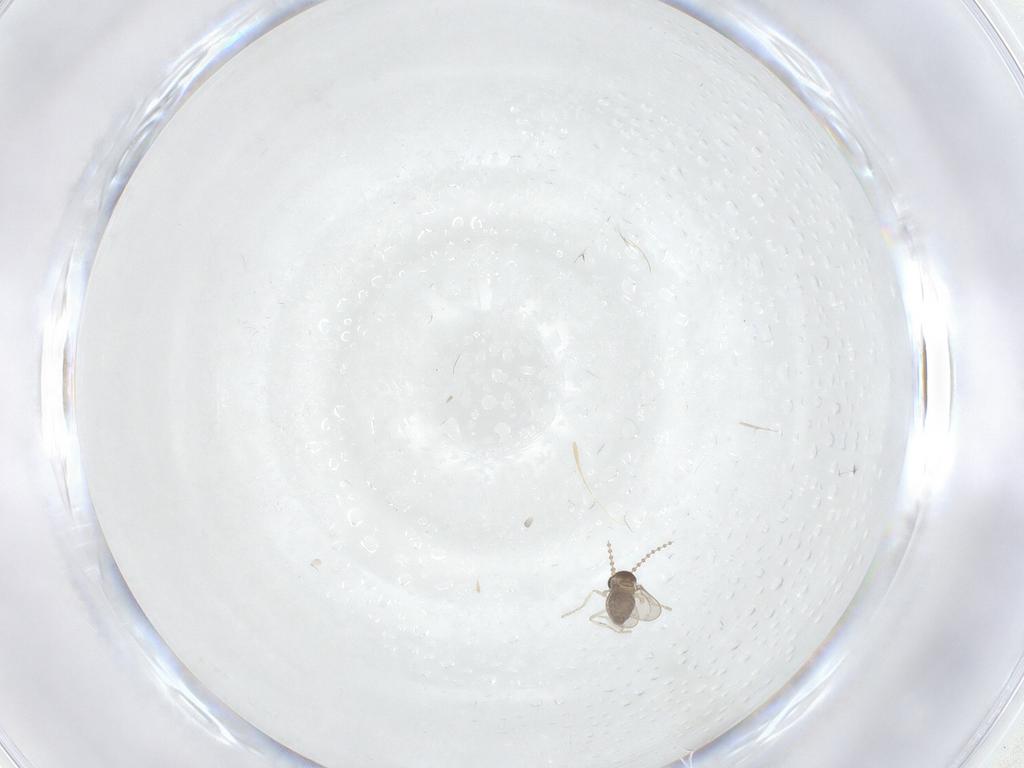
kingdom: Animalia
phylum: Arthropoda
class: Insecta
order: Diptera
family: Cecidomyiidae
